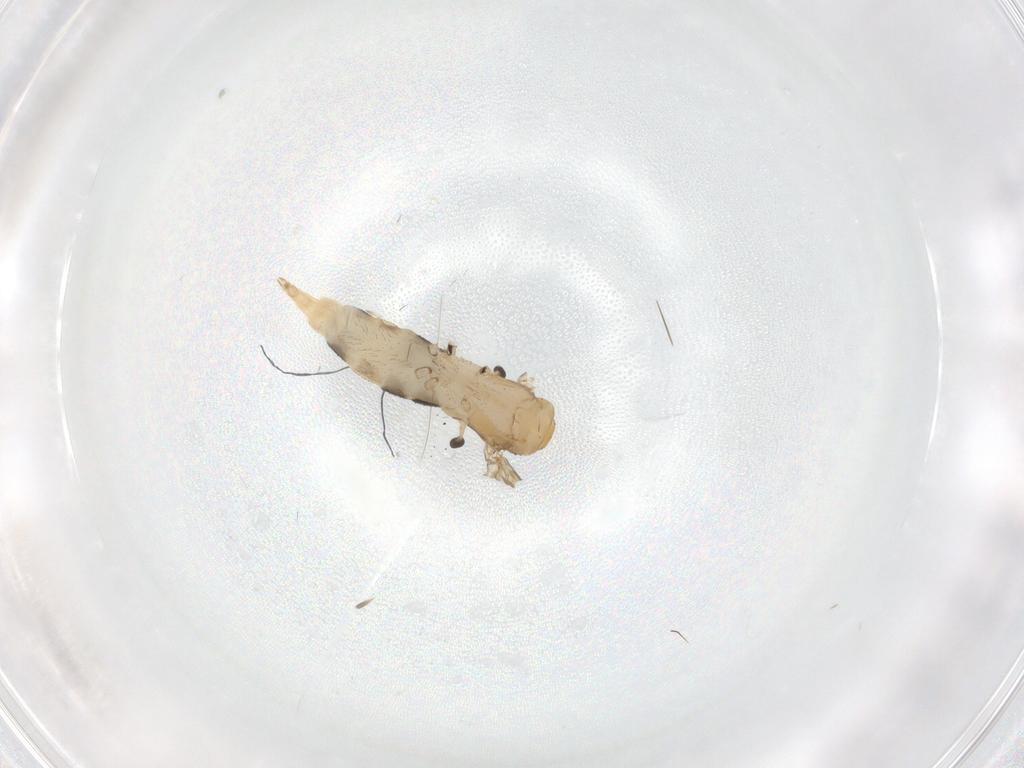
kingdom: Animalia
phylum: Arthropoda
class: Insecta
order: Diptera
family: Sciaridae
